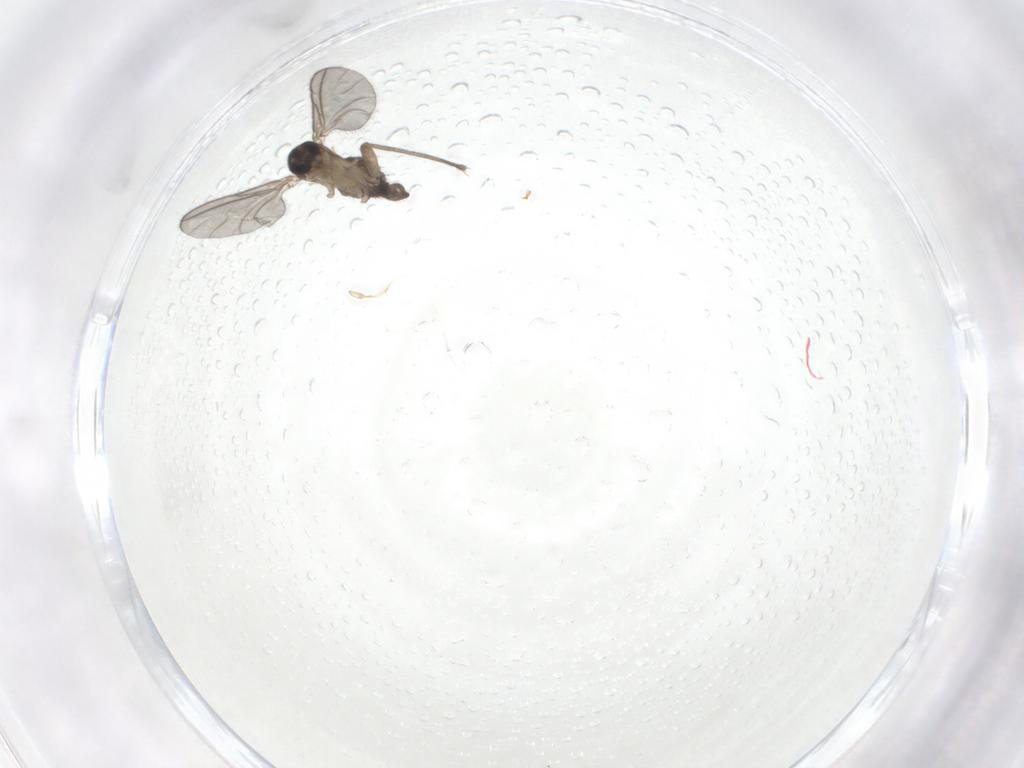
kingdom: Animalia
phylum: Arthropoda
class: Insecta
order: Diptera
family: Sciaridae
